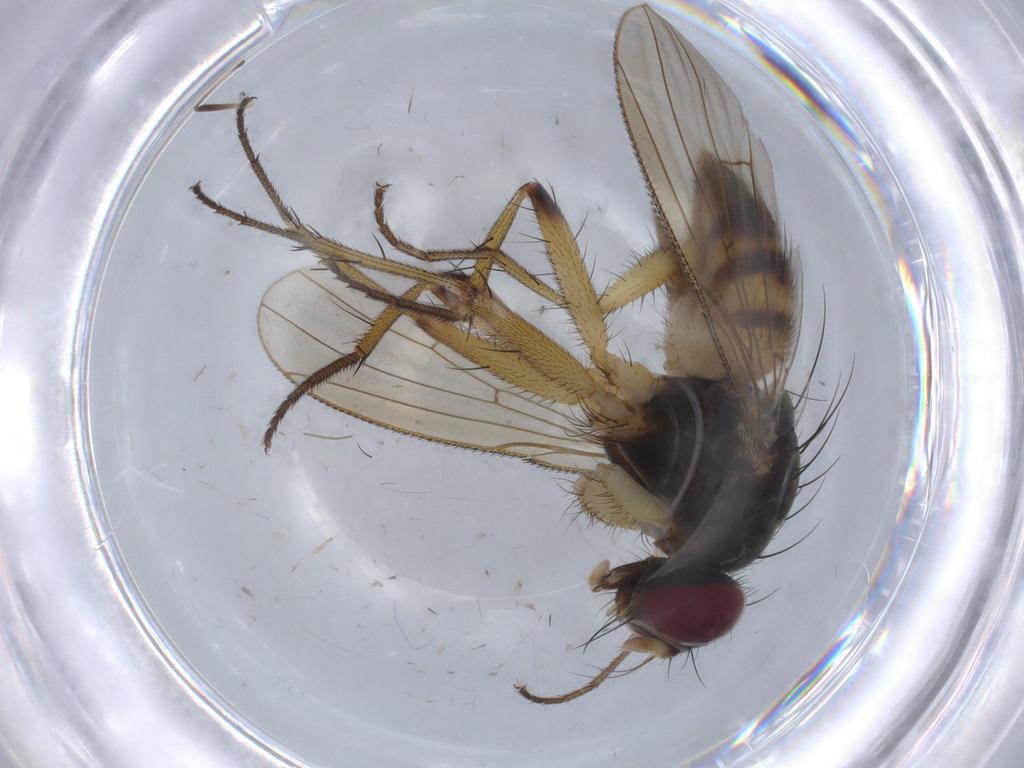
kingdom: Animalia
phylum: Arthropoda
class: Insecta
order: Diptera
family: Muscidae
